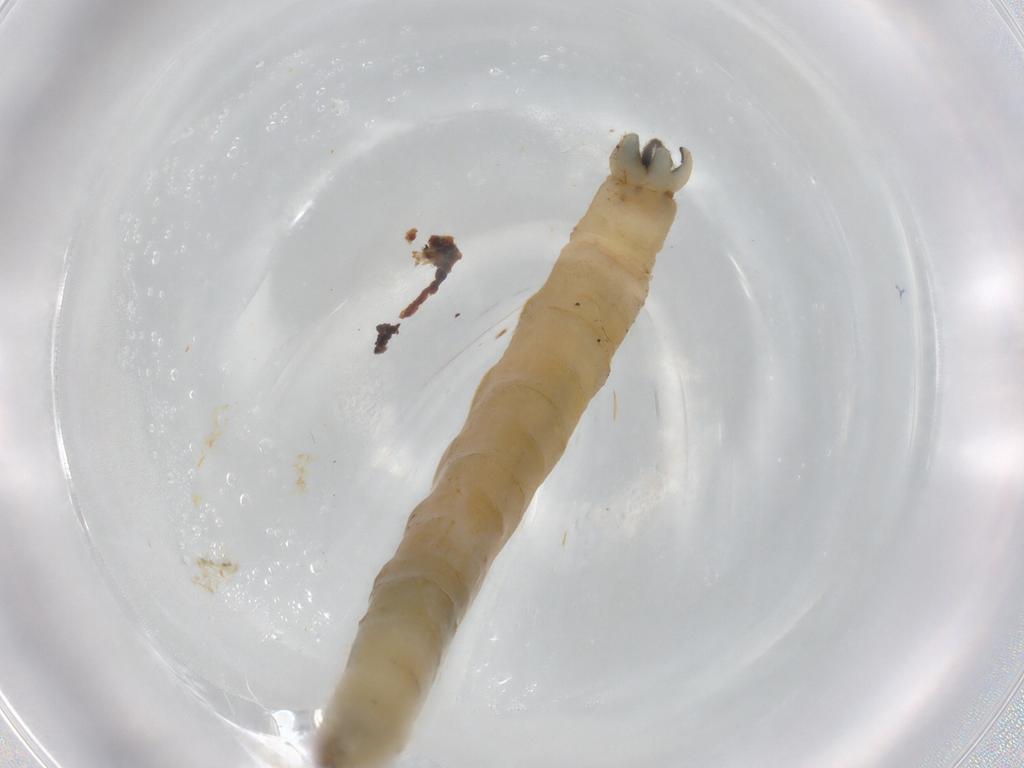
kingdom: Animalia
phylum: Arthropoda
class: Insecta
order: Diptera
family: Limoniidae
